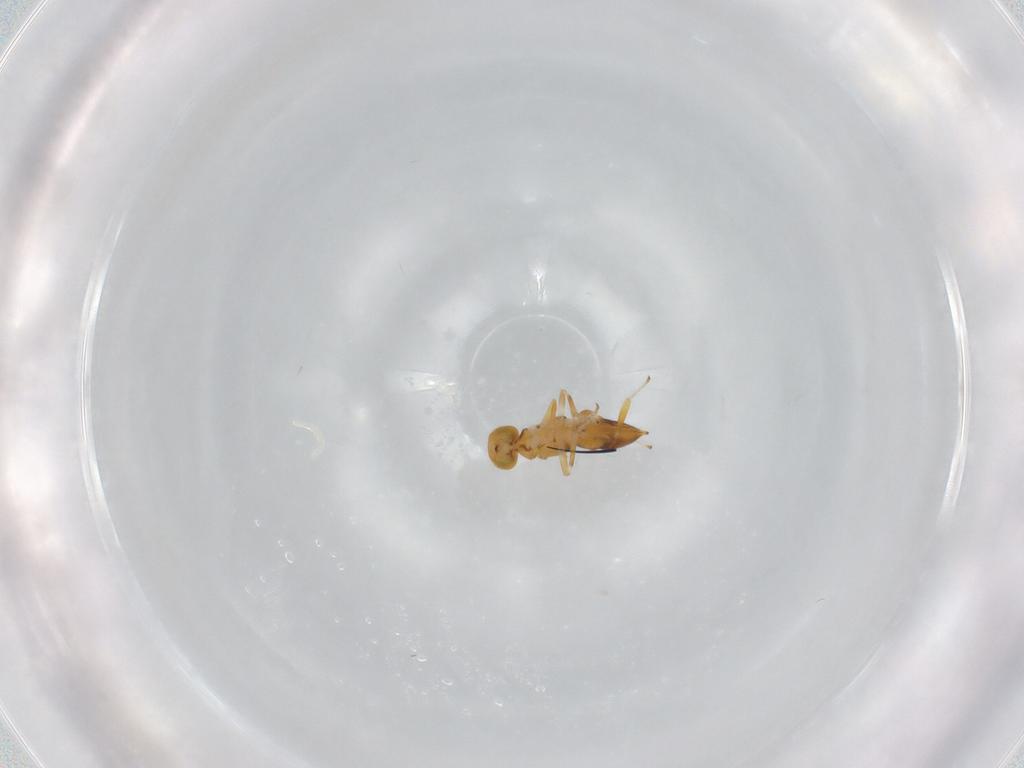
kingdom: Animalia
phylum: Arthropoda
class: Insecta
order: Hymenoptera
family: Encyrtidae
